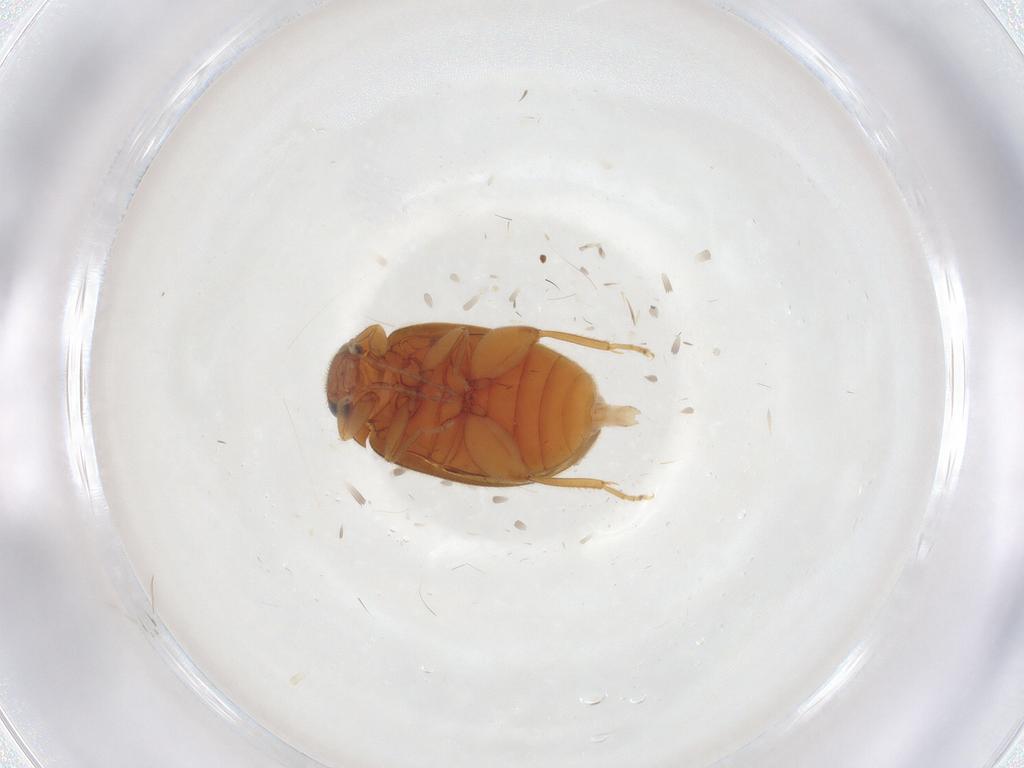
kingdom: Animalia
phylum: Arthropoda
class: Insecta
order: Coleoptera
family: Scirtidae
